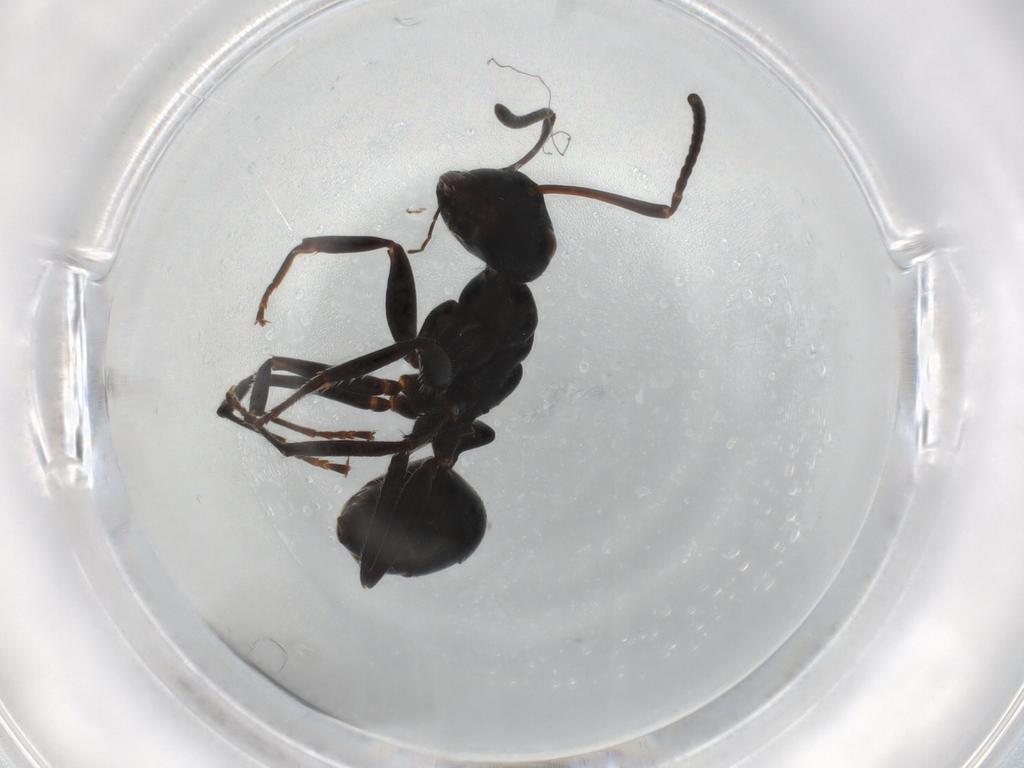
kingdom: Animalia
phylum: Arthropoda
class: Insecta
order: Hymenoptera
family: Formicidae
